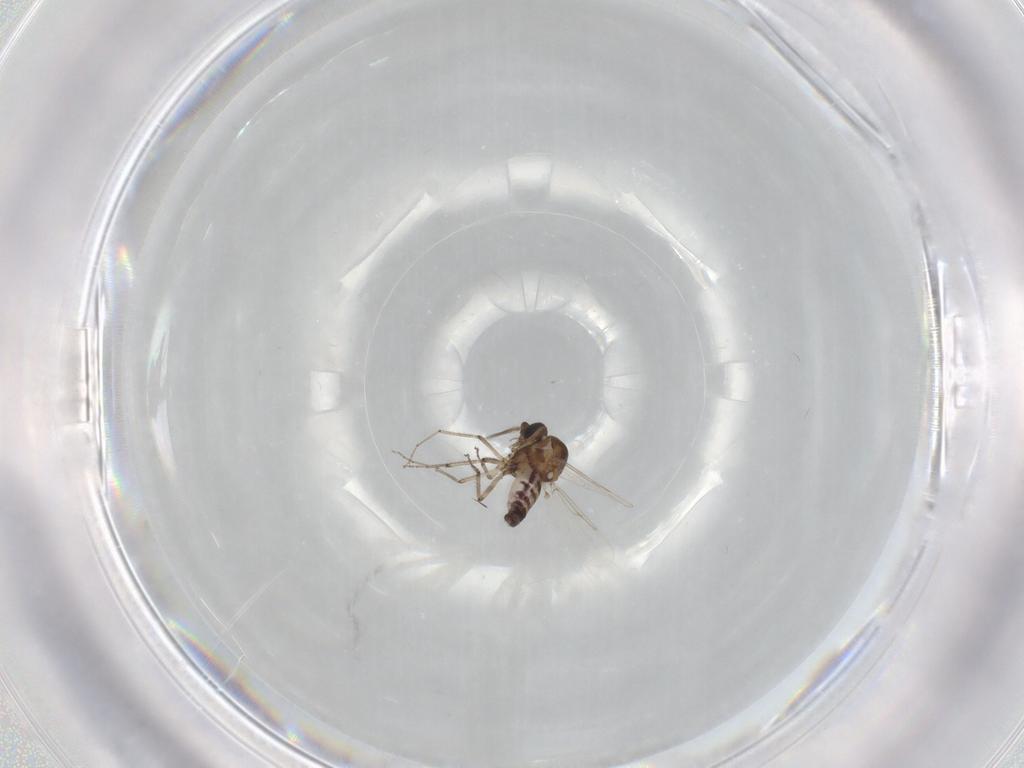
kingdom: Animalia
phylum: Arthropoda
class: Insecta
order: Diptera
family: Ceratopogonidae
